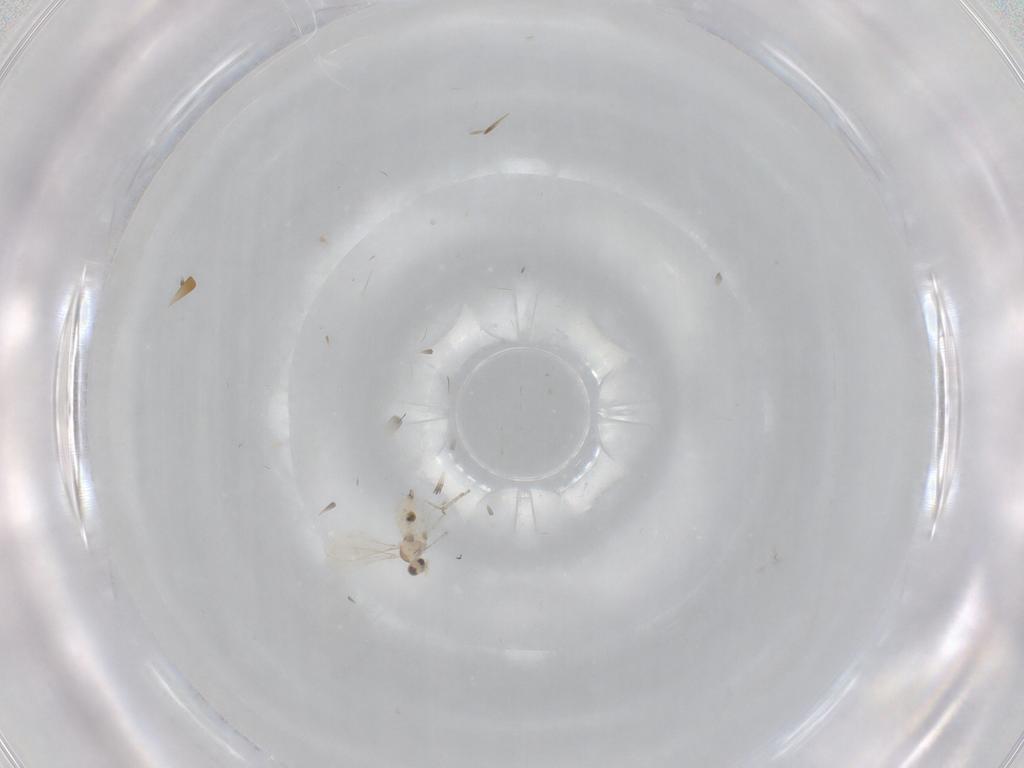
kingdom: Animalia
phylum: Arthropoda
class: Insecta
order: Diptera
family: Cecidomyiidae
